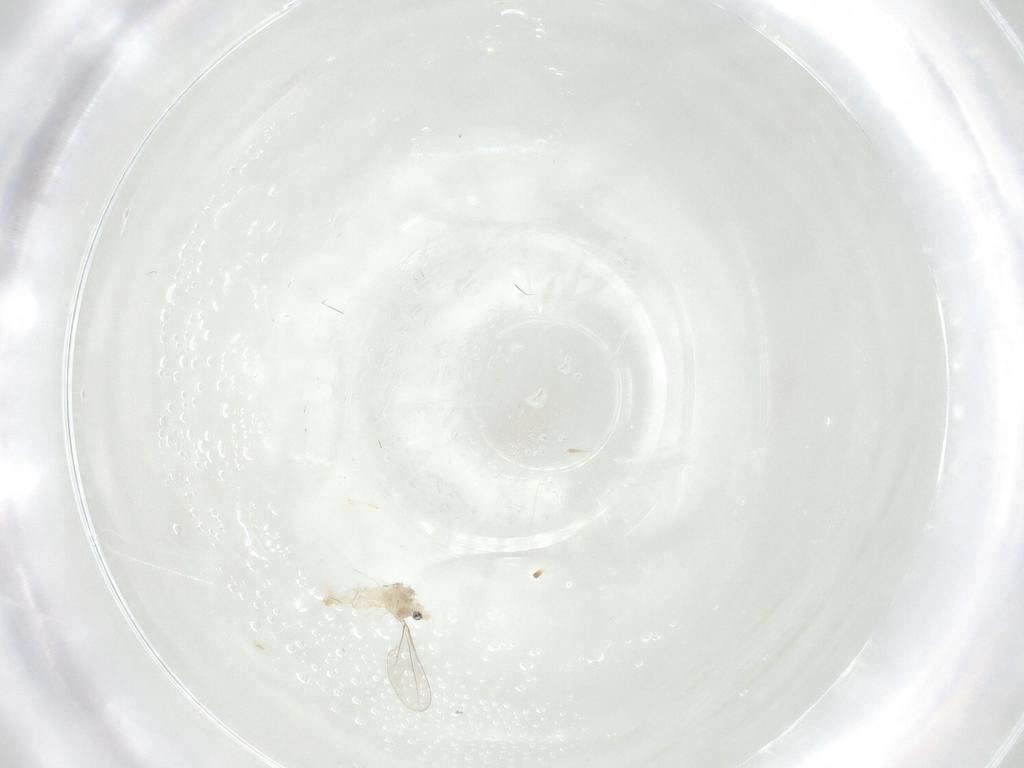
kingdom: Animalia
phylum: Arthropoda
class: Insecta
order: Diptera
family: Cecidomyiidae
